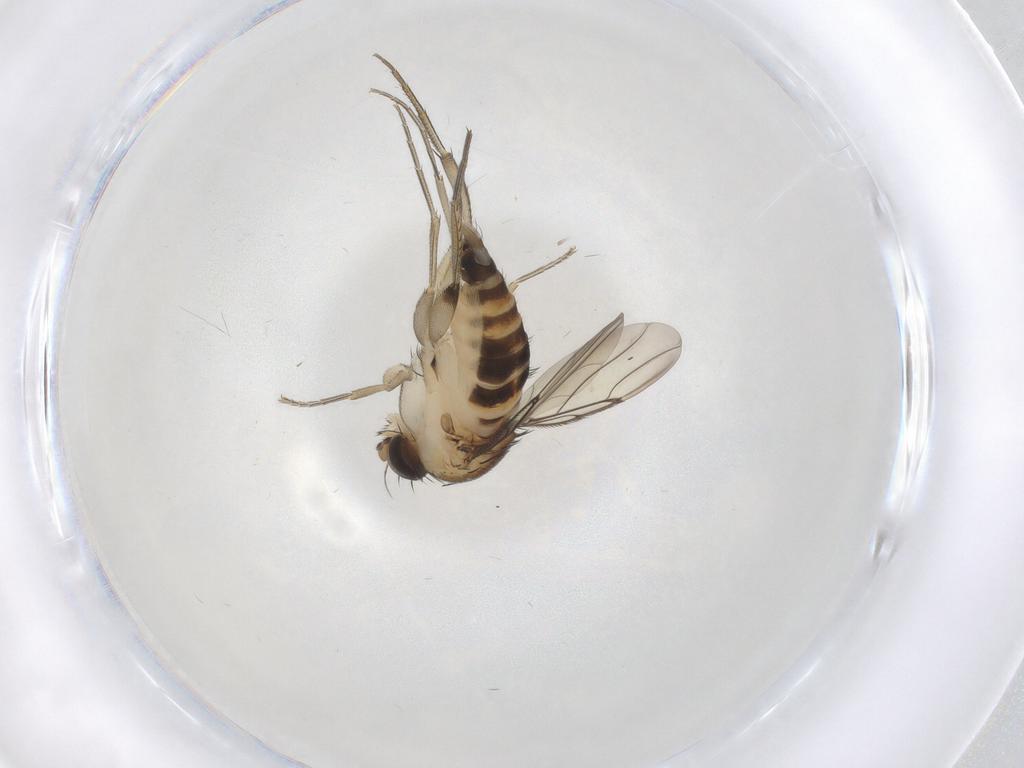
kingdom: Animalia
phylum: Arthropoda
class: Insecta
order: Diptera
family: Phoridae
